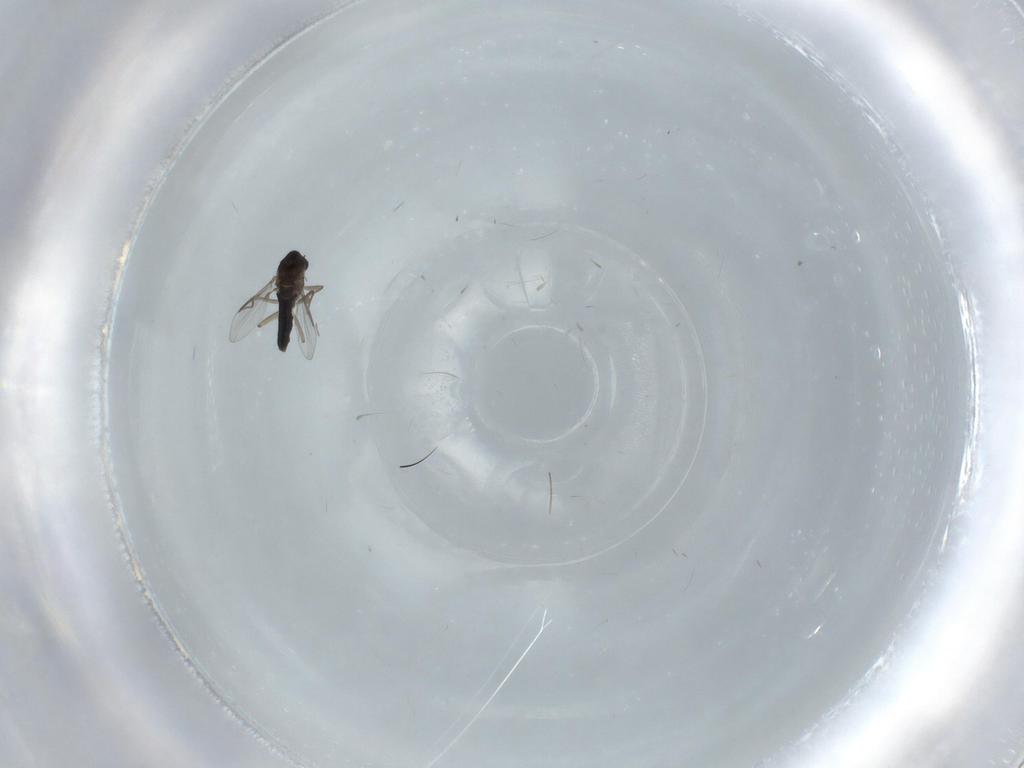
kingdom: Animalia
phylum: Arthropoda
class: Insecta
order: Diptera
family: Chironomidae
